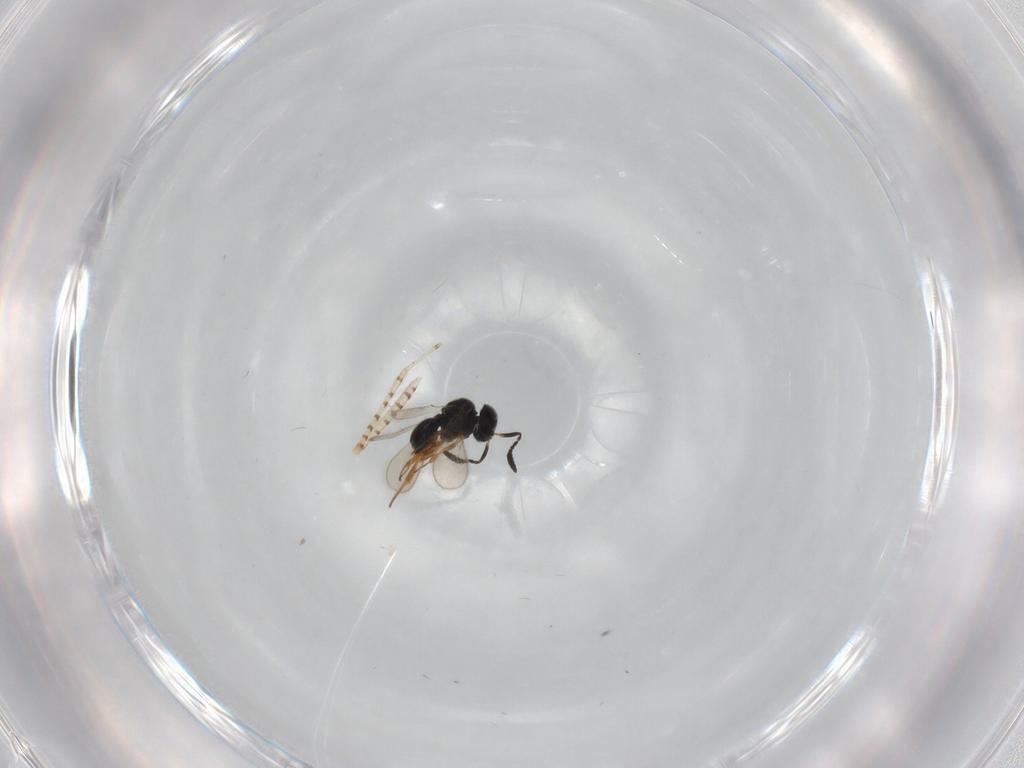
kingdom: Animalia
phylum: Arthropoda
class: Insecta
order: Hymenoptera
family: Scelionidae
